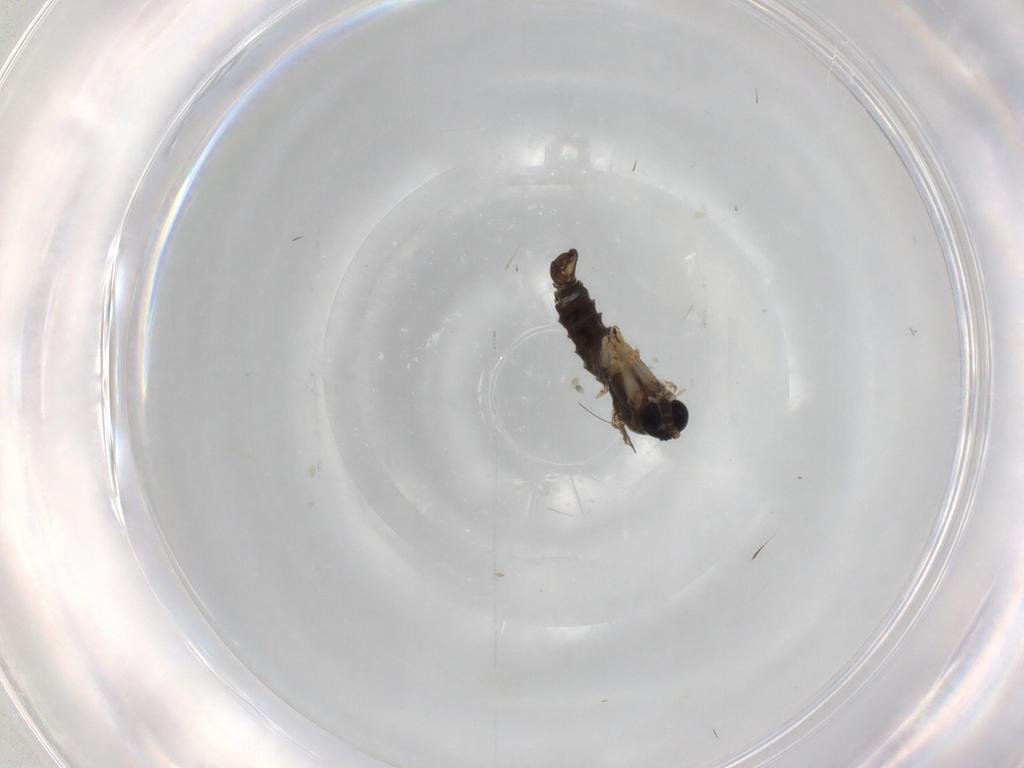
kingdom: Animalia
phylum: Arthropoda
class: Insecta
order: Diptera
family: Sciaridae
